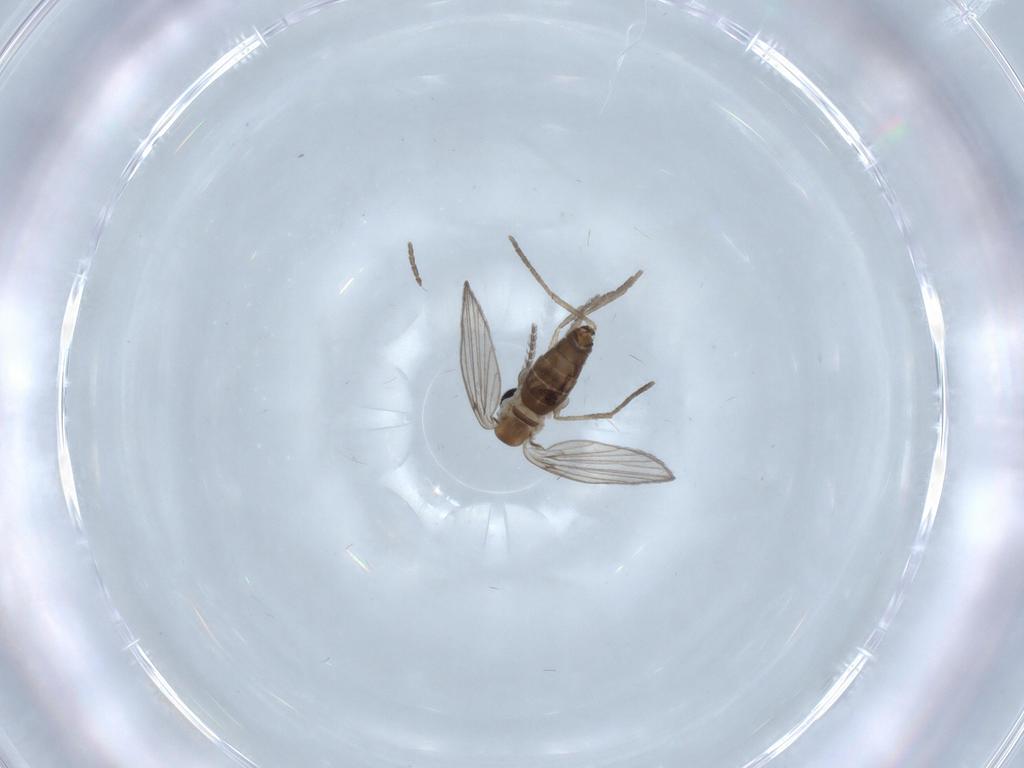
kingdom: Animalia
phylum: Arthropoda
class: Insecta
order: Diptera
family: Psychodidae
